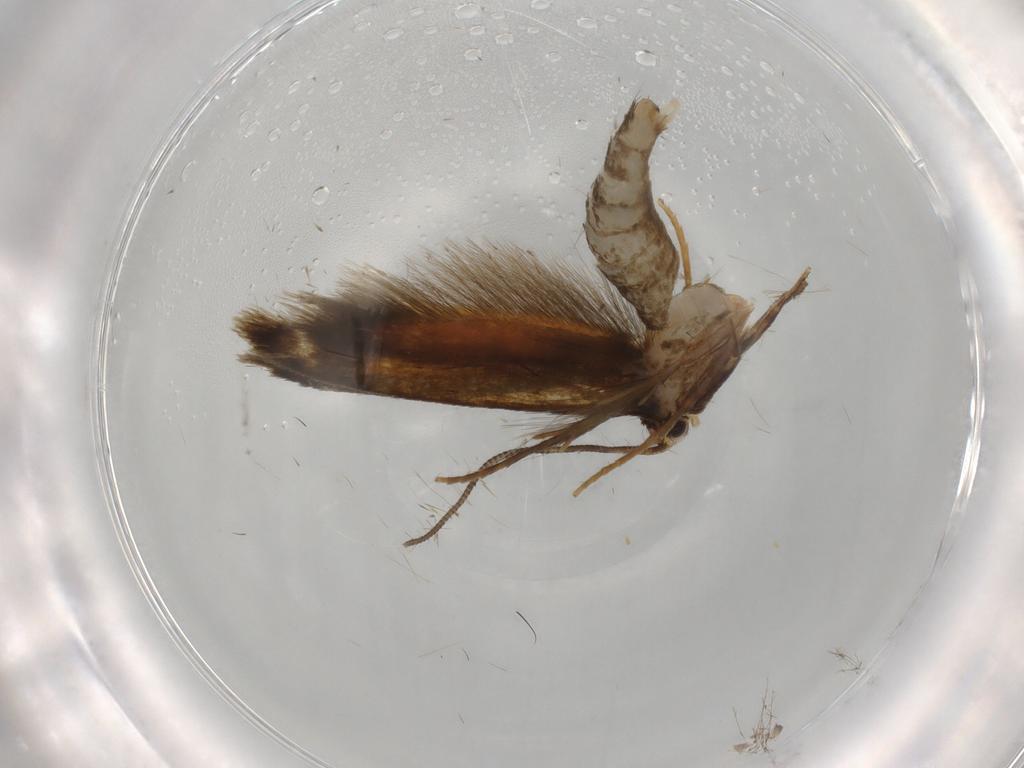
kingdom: Animalia
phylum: Arthropoda
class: Insecta
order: Lepidoptera
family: Tineidae
